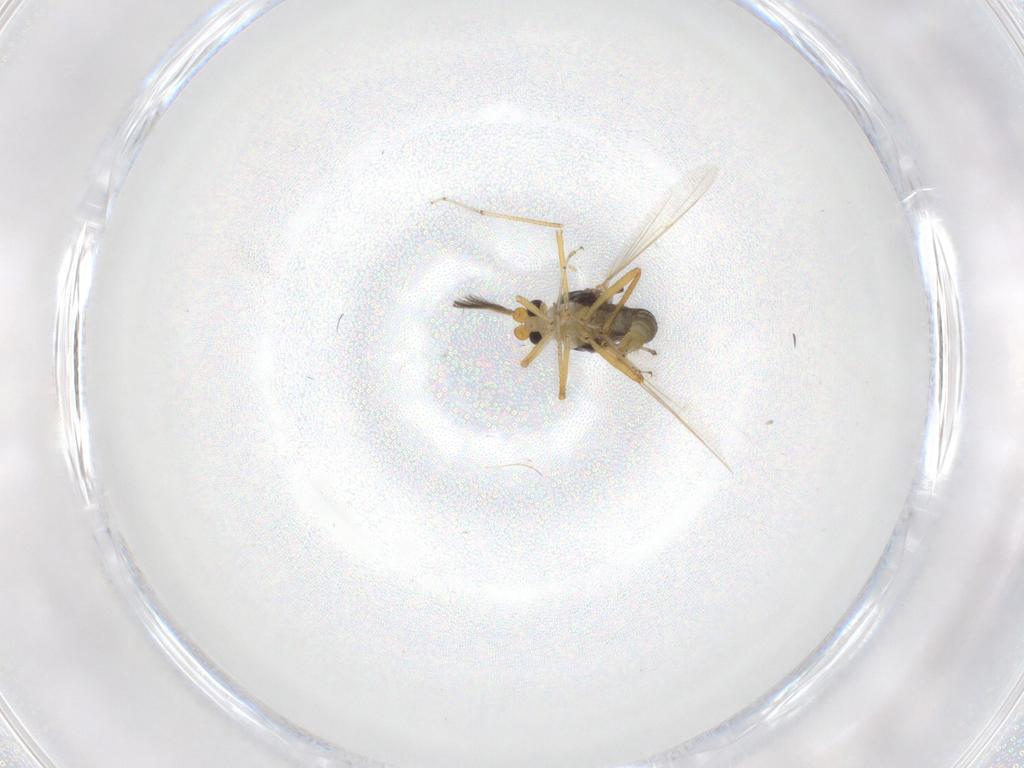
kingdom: Animalia
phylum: Arthropoda
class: Insecta
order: Diptera
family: Ceratopogonidae
